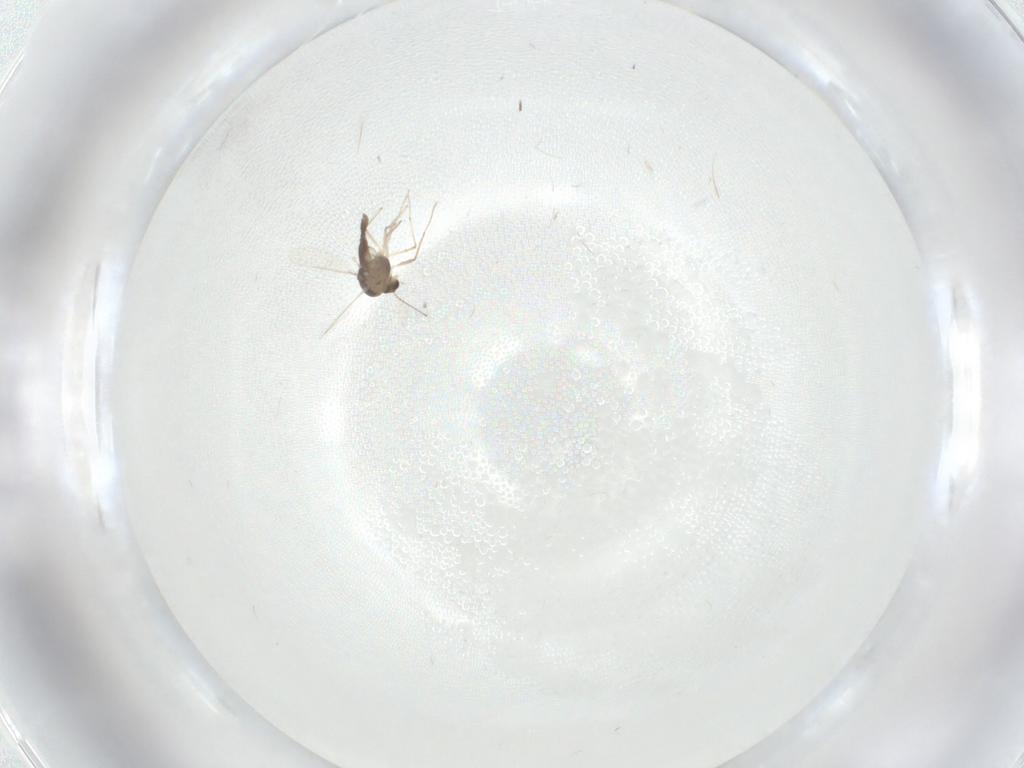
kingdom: Animalia
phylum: Arthropoda
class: Insecta
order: Diptera
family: Chironomidae
